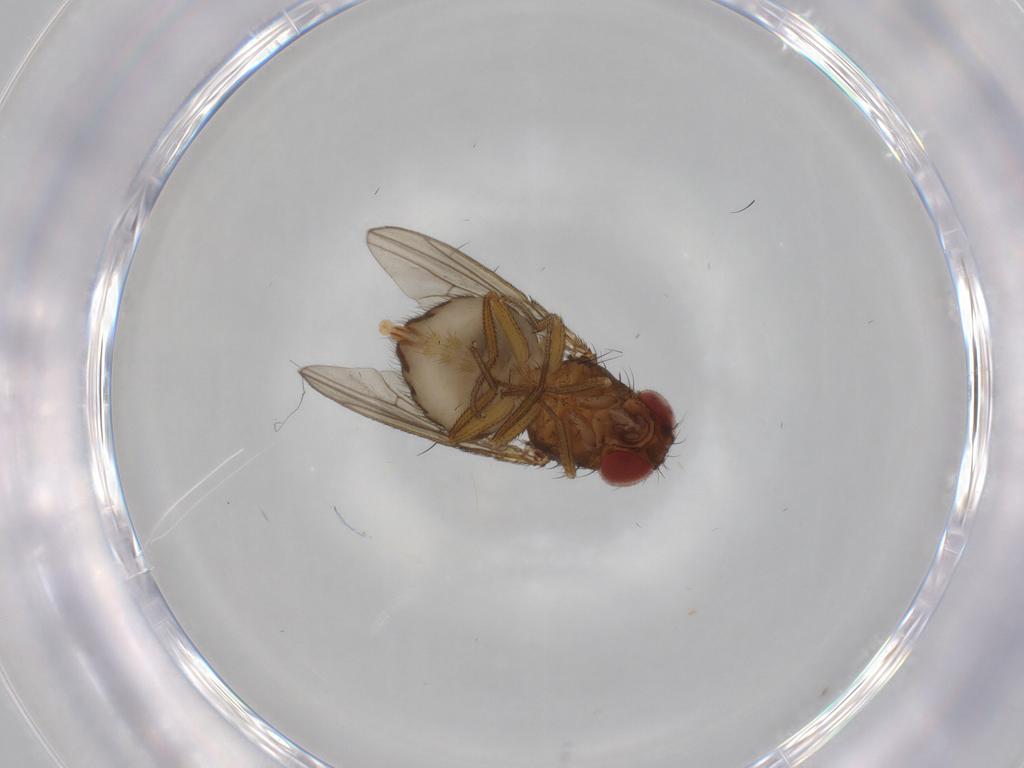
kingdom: Animalia
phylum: Arthropoda
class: Insecta
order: Diptera
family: Drosophilidae
